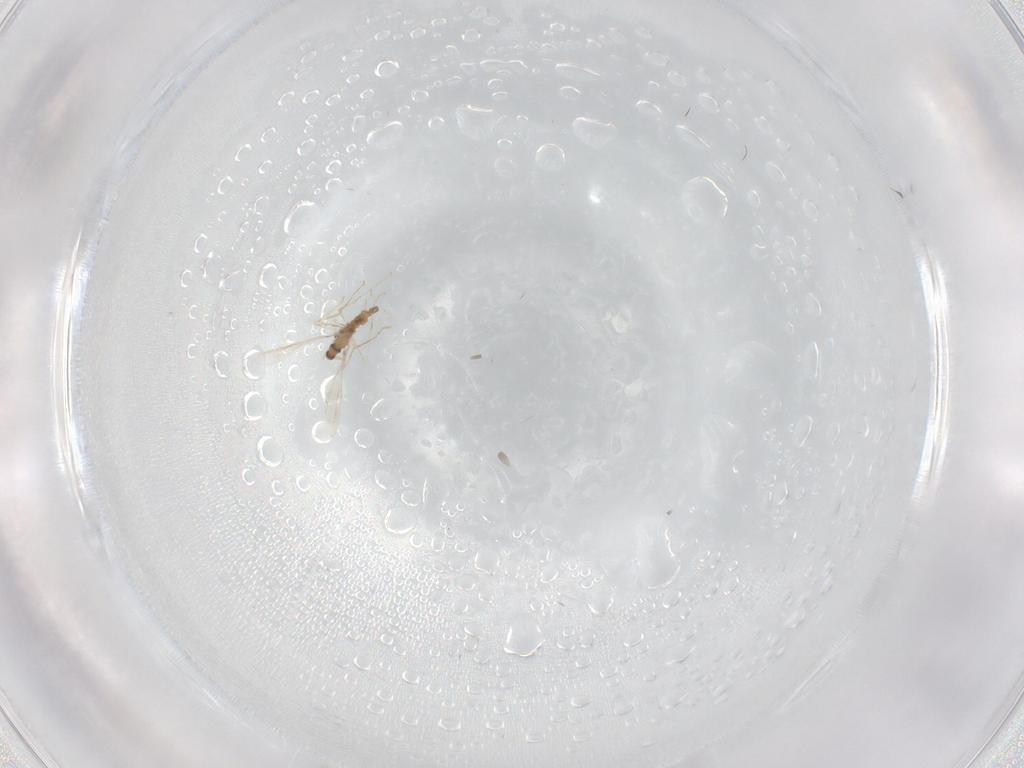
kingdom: Animalia
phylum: Arthropoda
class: Insecta
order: Diptera
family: Cecidomyiidae
